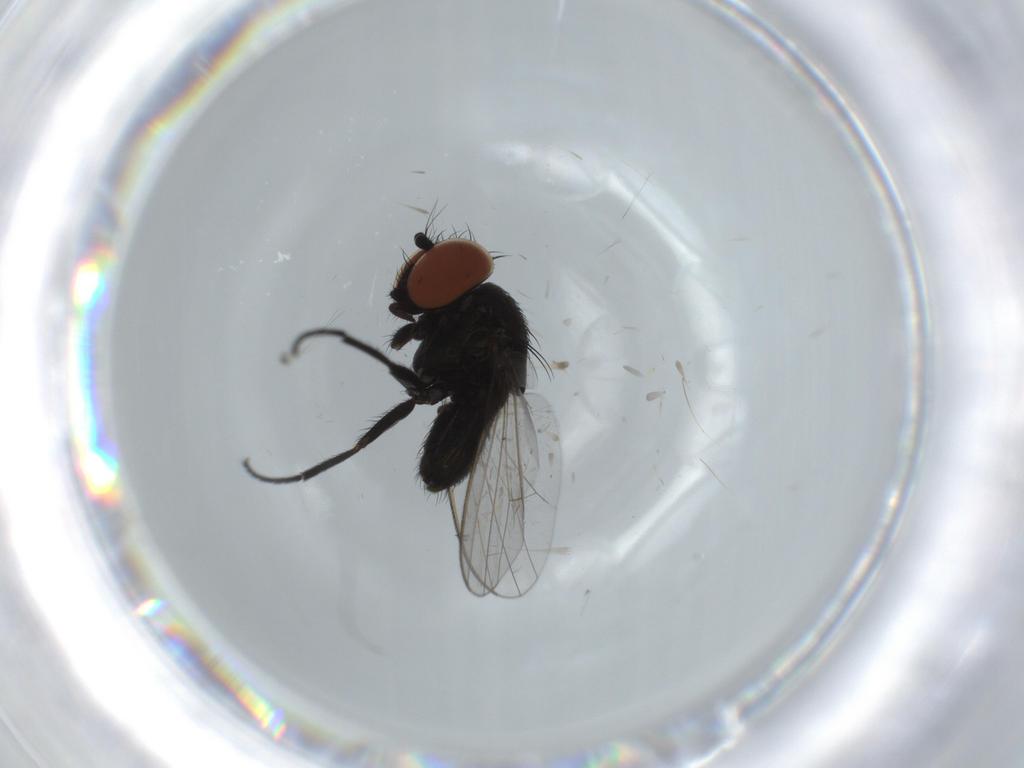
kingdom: Animalia
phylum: Arthropoda
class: Insecta
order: Diptera
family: Milichiidae
